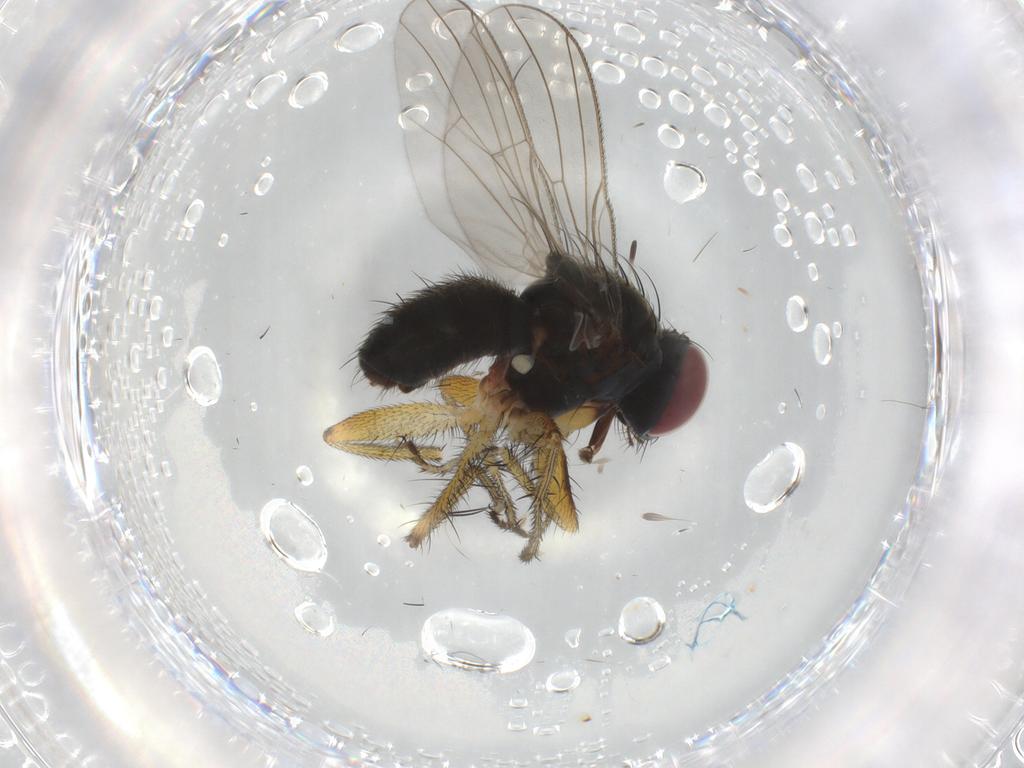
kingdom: Animalia
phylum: Arthropoda
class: Insecta
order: Diptera
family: Muscidae
